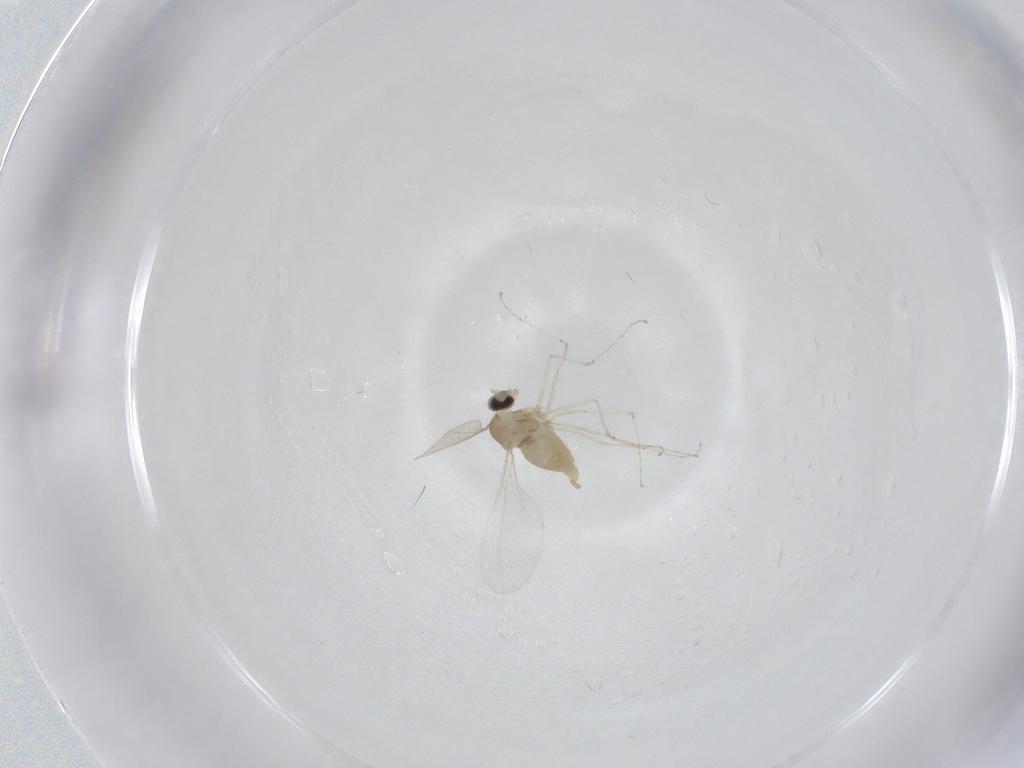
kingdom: Animalia
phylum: Arthropoda
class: Insecta
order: Diptera
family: Cecidomyiidae
